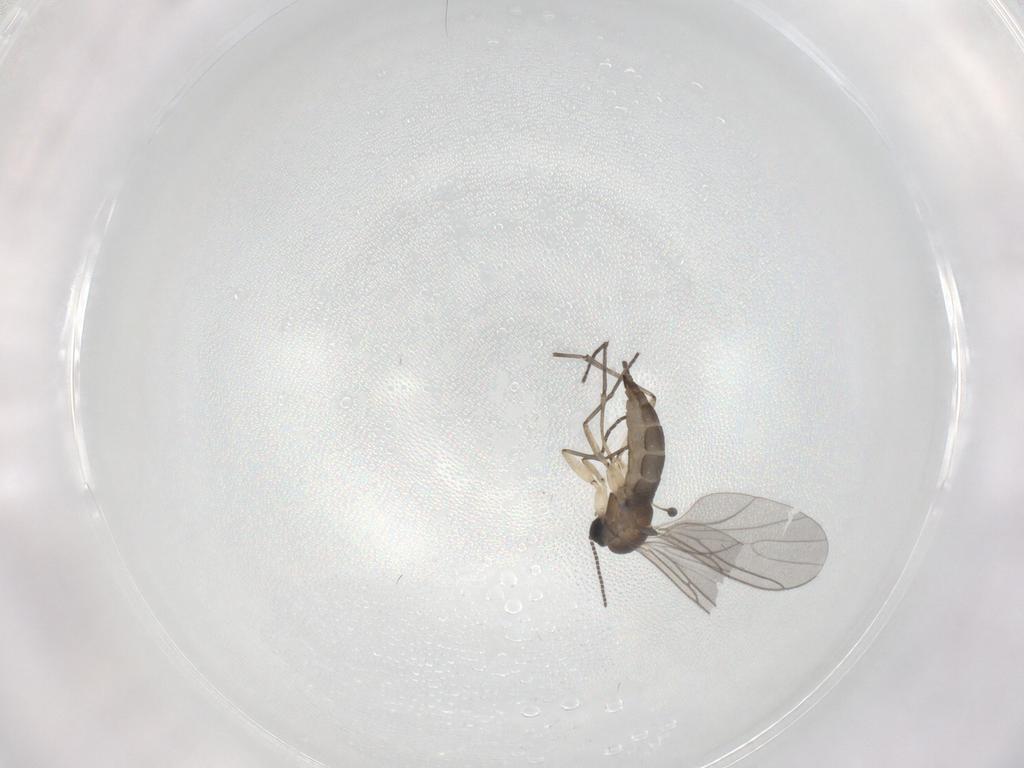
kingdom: Animalia
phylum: Arthropoda
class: Insecta
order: Diptera
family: Sciaridae
